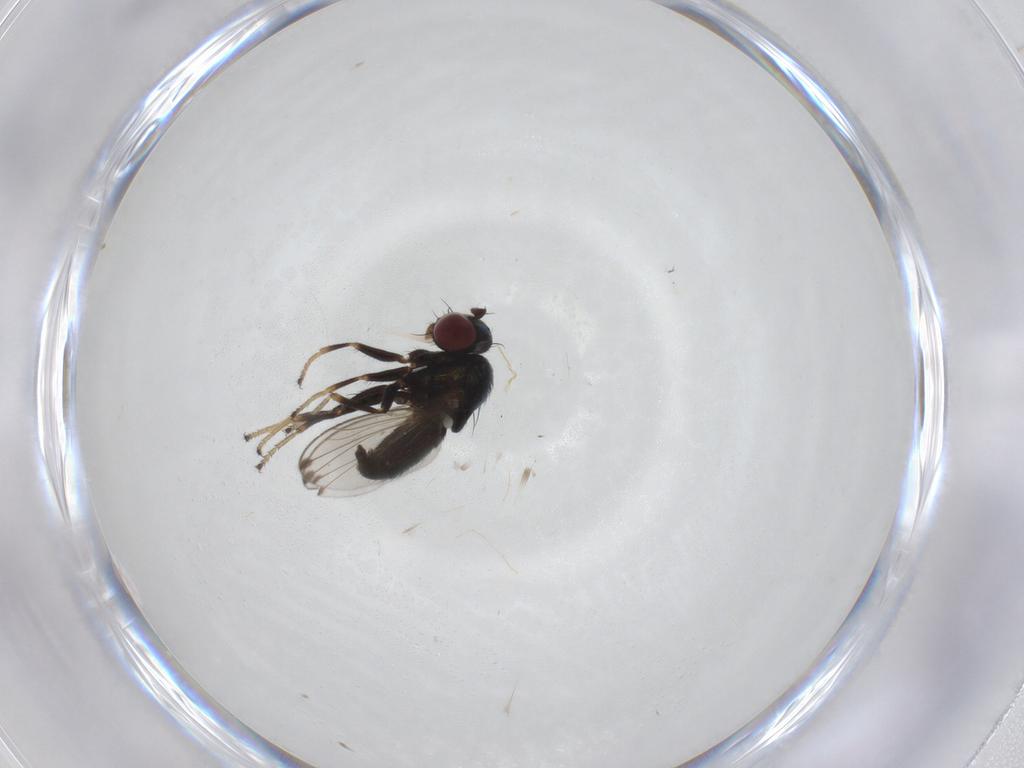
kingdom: Animalia
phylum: Arthropoda
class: Insecta
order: Diptera
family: Ephydridae
